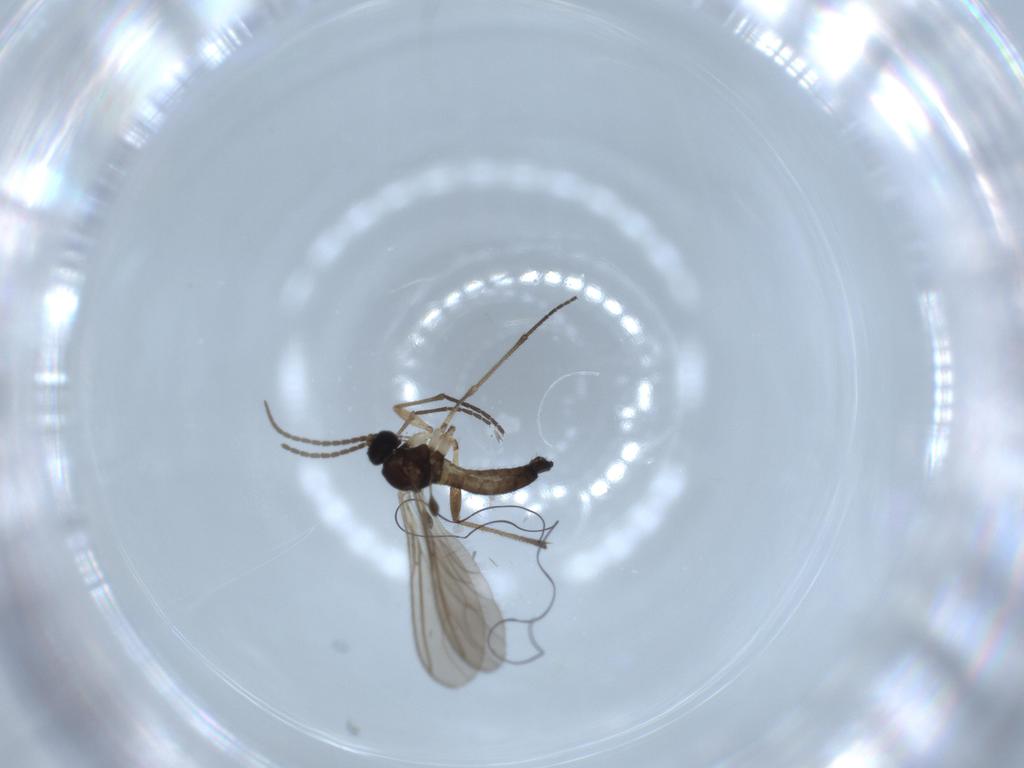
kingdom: Animalia
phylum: Arthropoda
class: Insecta
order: Diptera
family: Sciaridae
